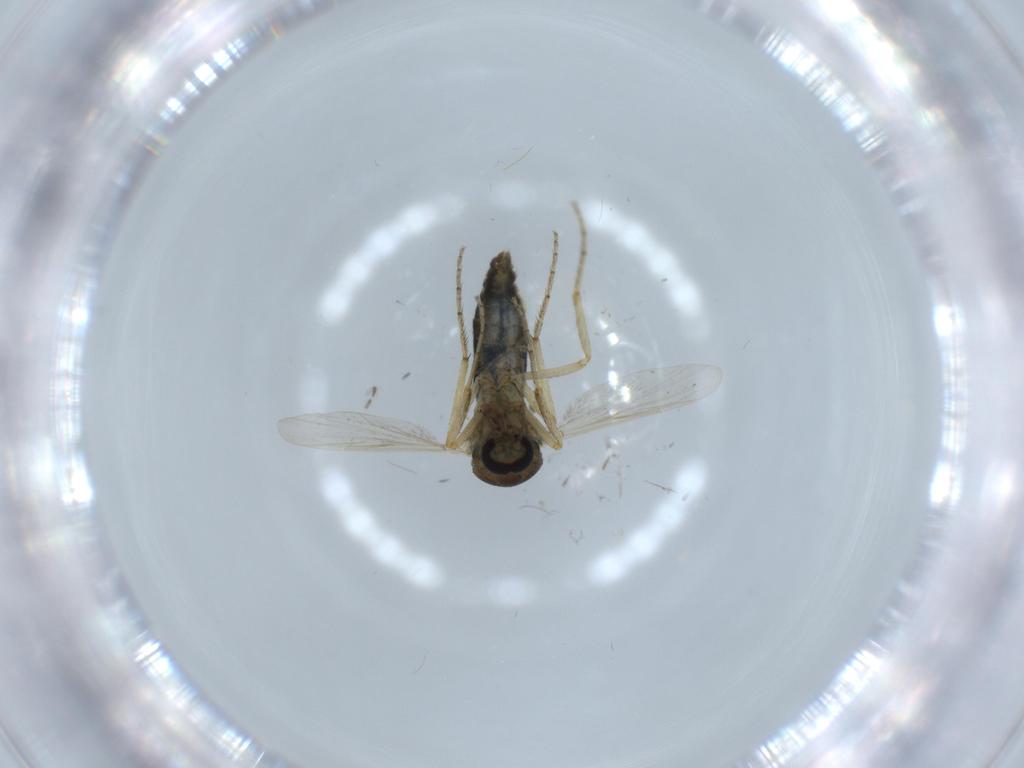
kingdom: Animalia
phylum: Arthropoda
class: Insecta
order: Diptera
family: Ceratopogonidae
